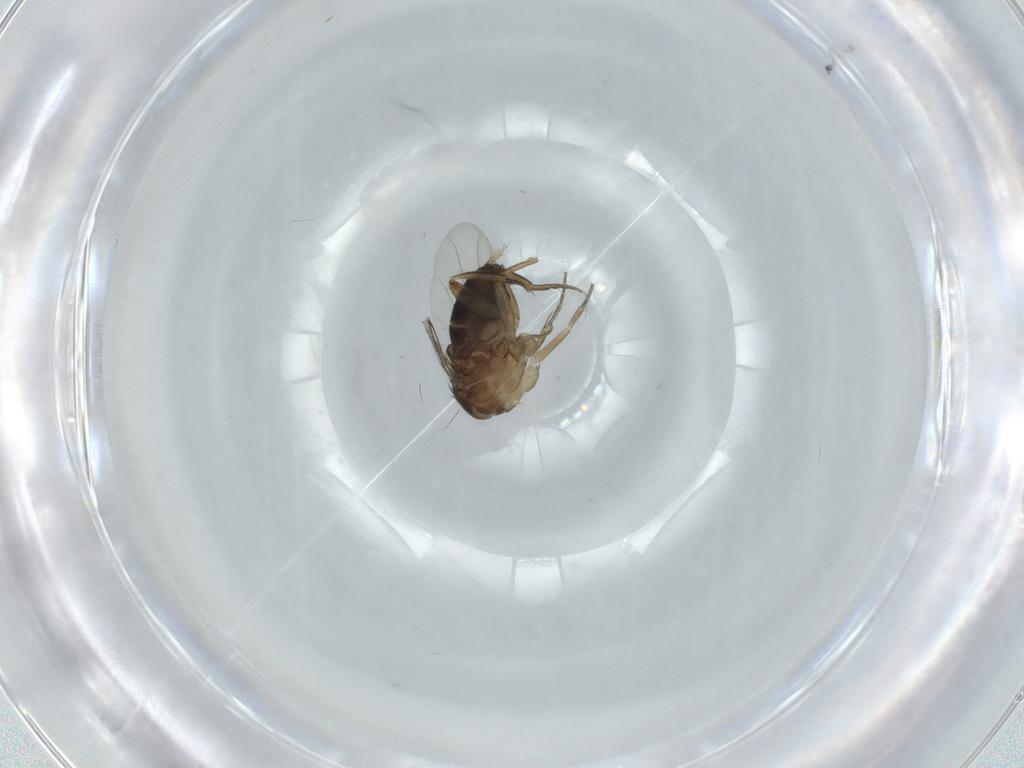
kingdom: Animalia
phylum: Arthropoda
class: Insecta
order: Diptera
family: Phoridae
